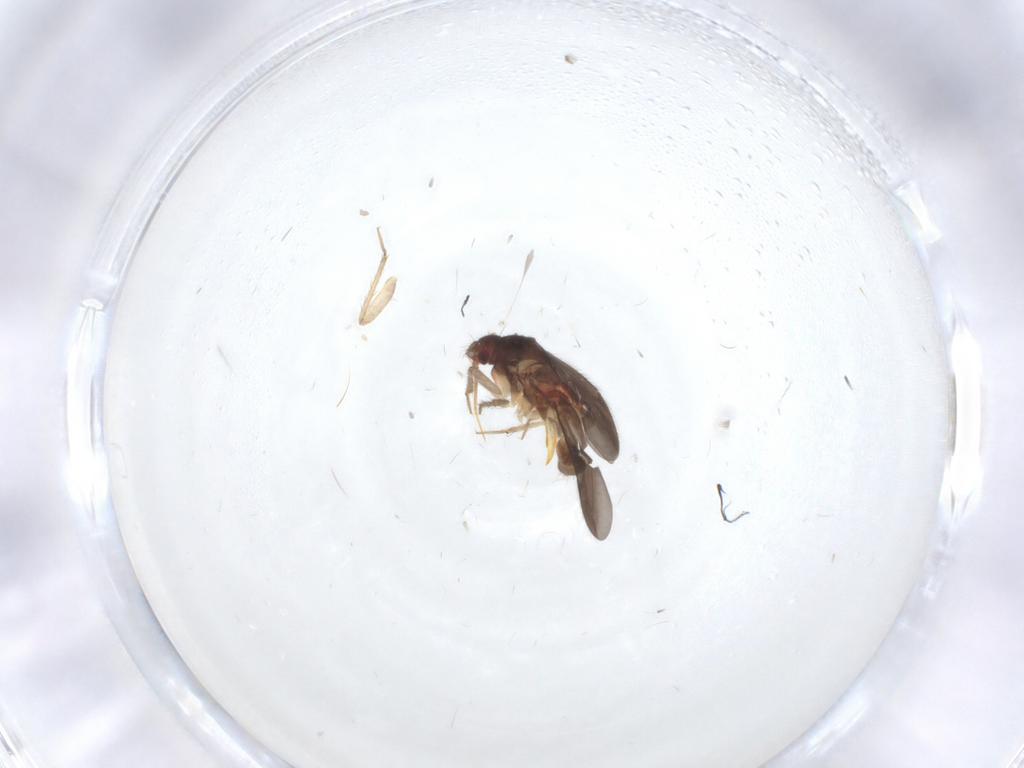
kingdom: Animalia
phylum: Arthropoda
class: Insecta
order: Hemiptera
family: Ceratocombidae
